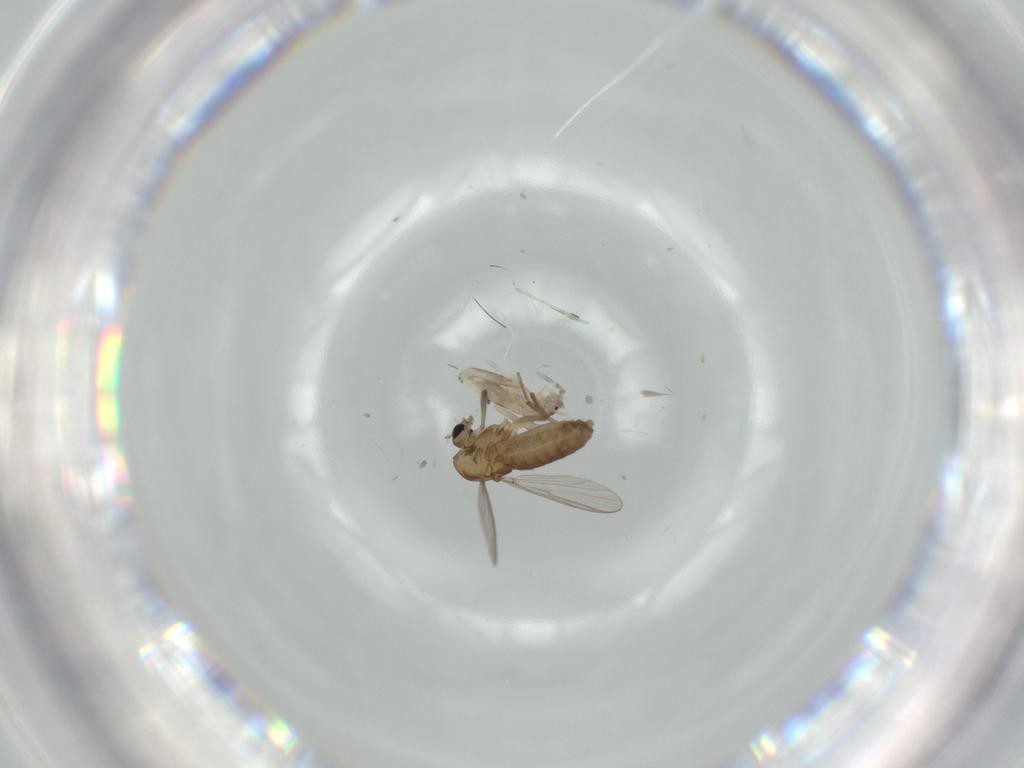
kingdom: Animalia
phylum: Arthropoda
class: Insecta
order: Diptera
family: Chironomidae
